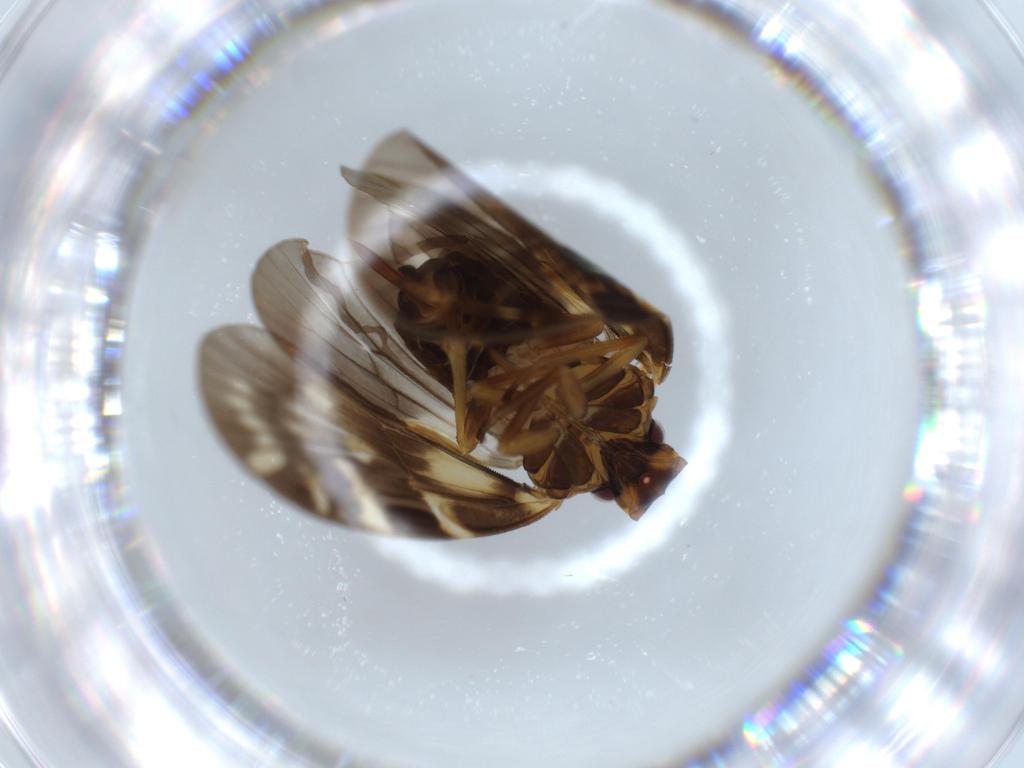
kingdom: Animalia
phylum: Arthropoda
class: Insecta
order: Hemiptera
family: Cixiidae
